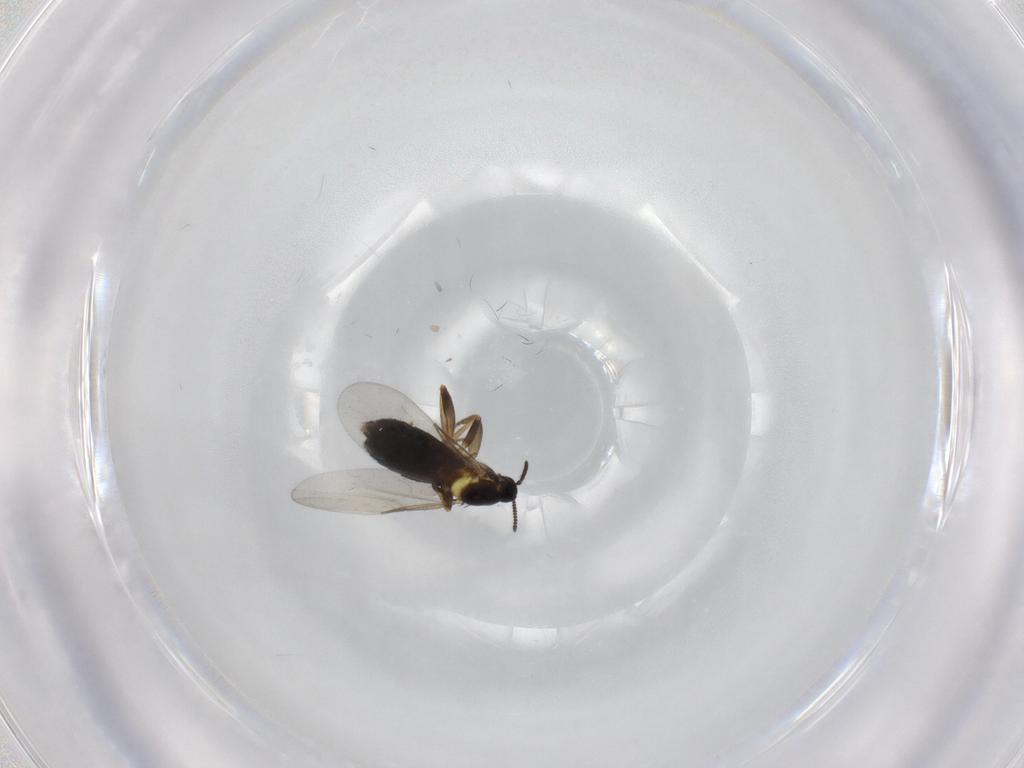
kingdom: Animalia
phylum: Arthropoda
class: Insecta
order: Diptera
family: Scatopsidae
